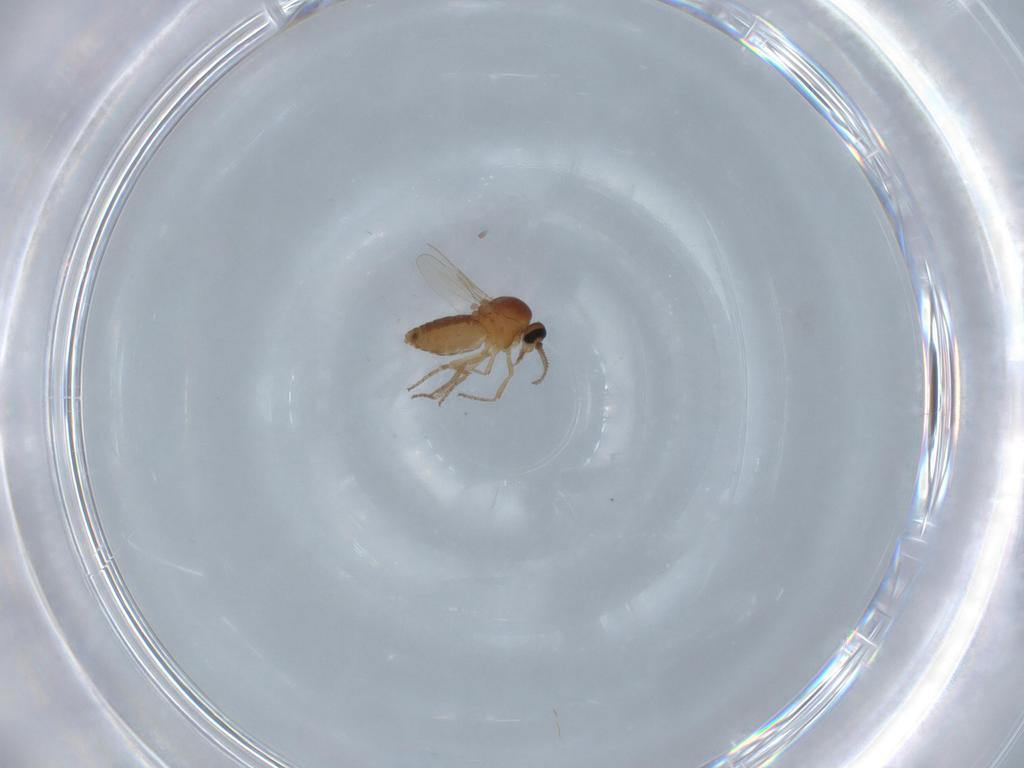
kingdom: Animalia
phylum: Arthropoda
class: Insecta
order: Diptera
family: Ceratopogonidae
